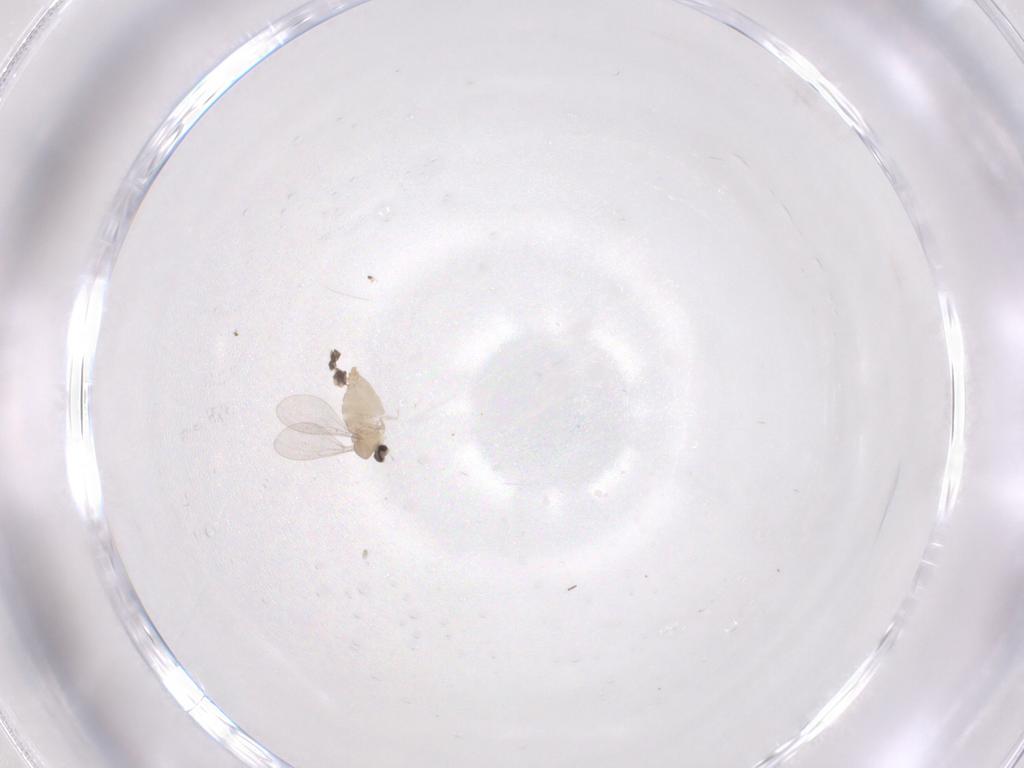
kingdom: Animalia
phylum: Arthropoda
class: Insecta
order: Diptera
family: Cecidomyiidae
